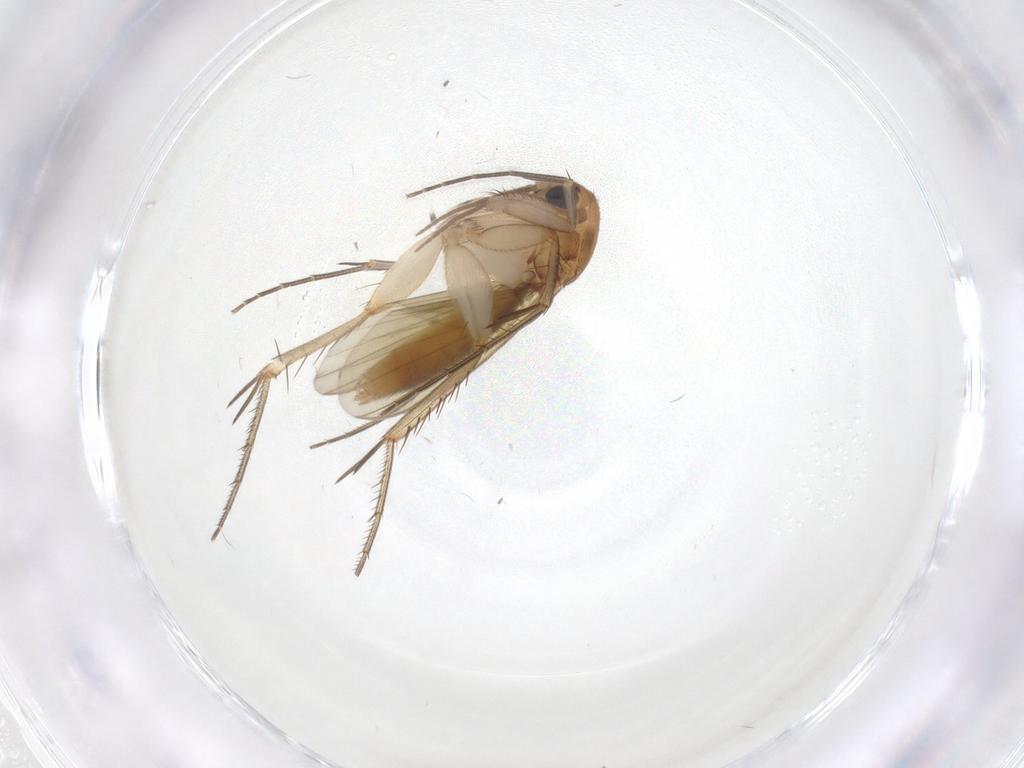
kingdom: Animalia
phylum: Arthropoda
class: Insecta
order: Diptera
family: Mycetophilidae
